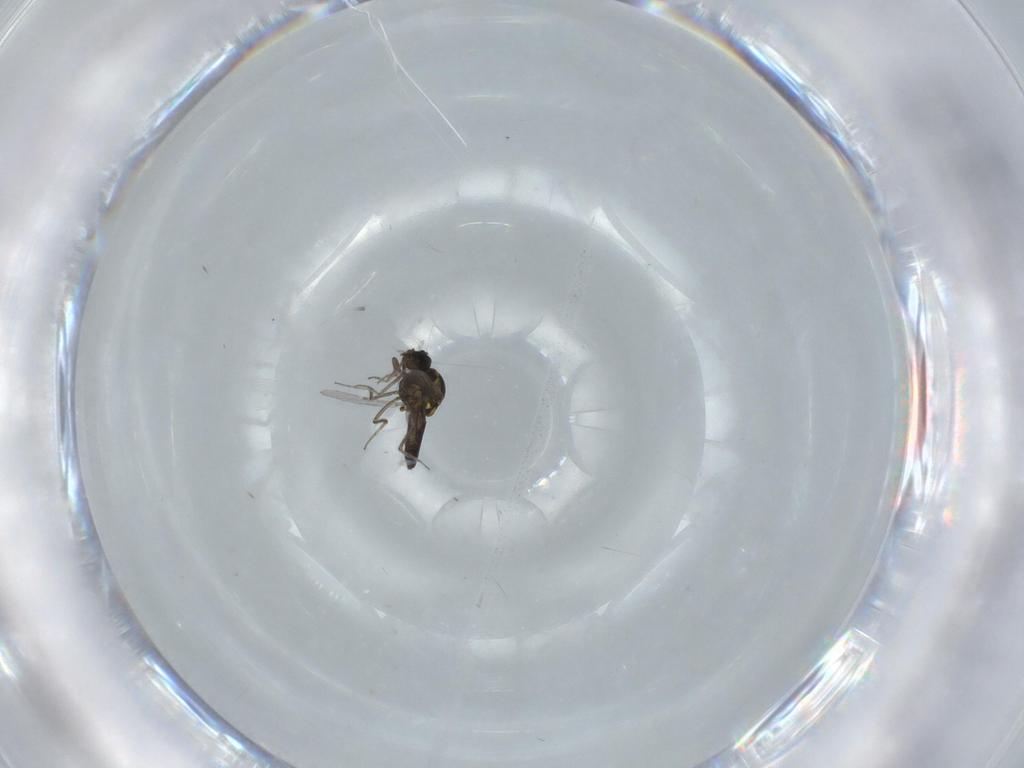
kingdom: Animalia
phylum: Arthropoda
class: Insecta
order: Diptera
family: Ceratopogonidae
